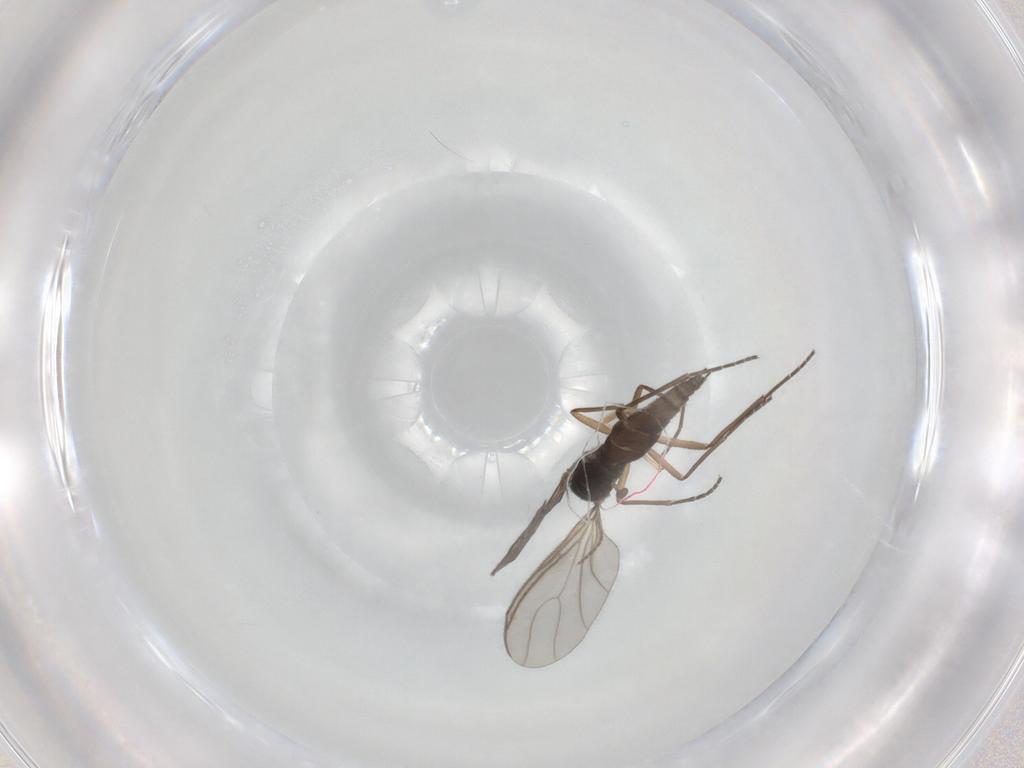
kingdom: Animalia
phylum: Arthropoda
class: Insecta
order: Diptera
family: Sciaridae
